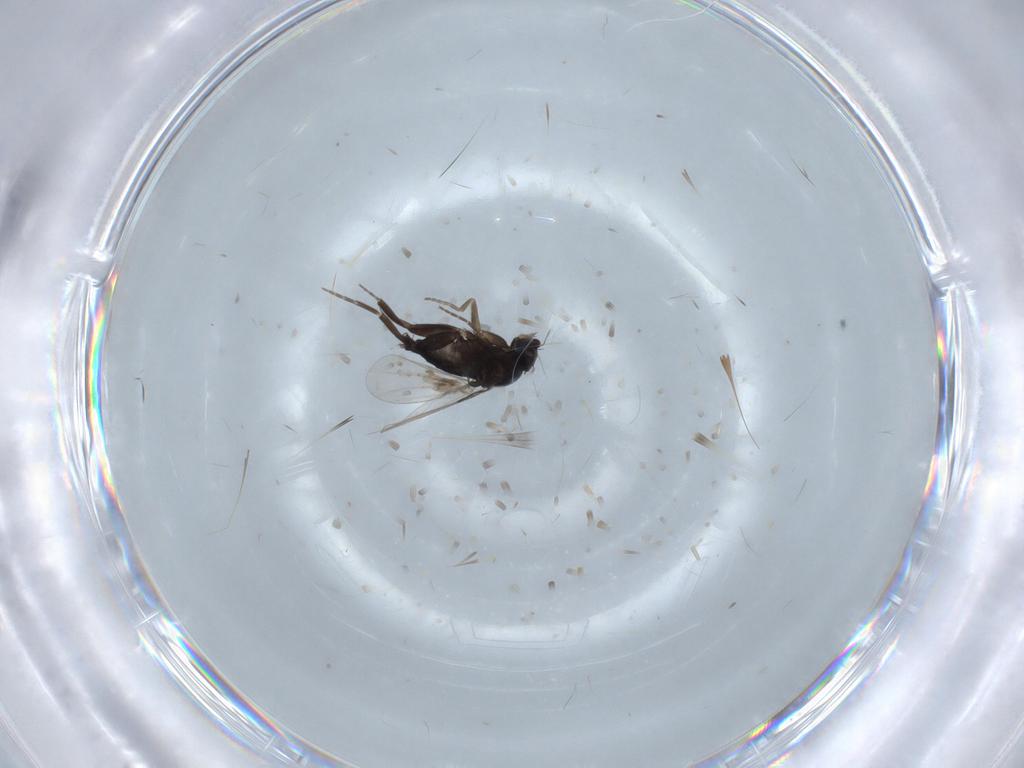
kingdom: Animalia
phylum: Arthropoda
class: Insecta
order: Diptera
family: Phoridae
